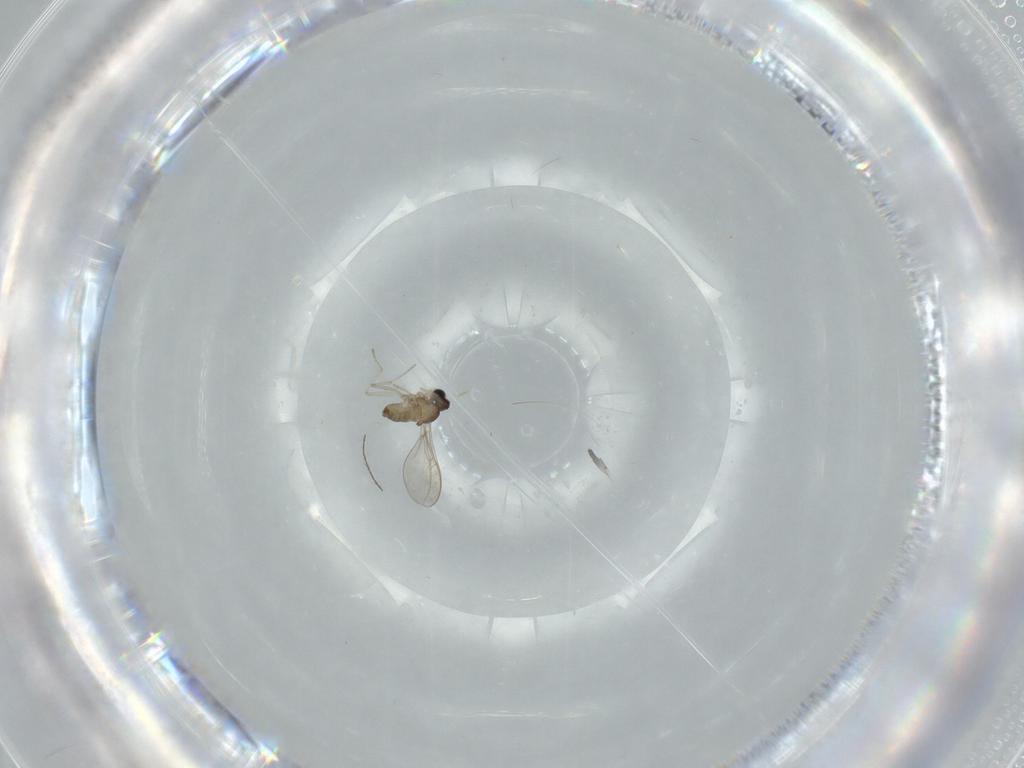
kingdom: Animalia
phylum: Arthropoda
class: Insecta
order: Diptera
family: Cecidomyiidae
